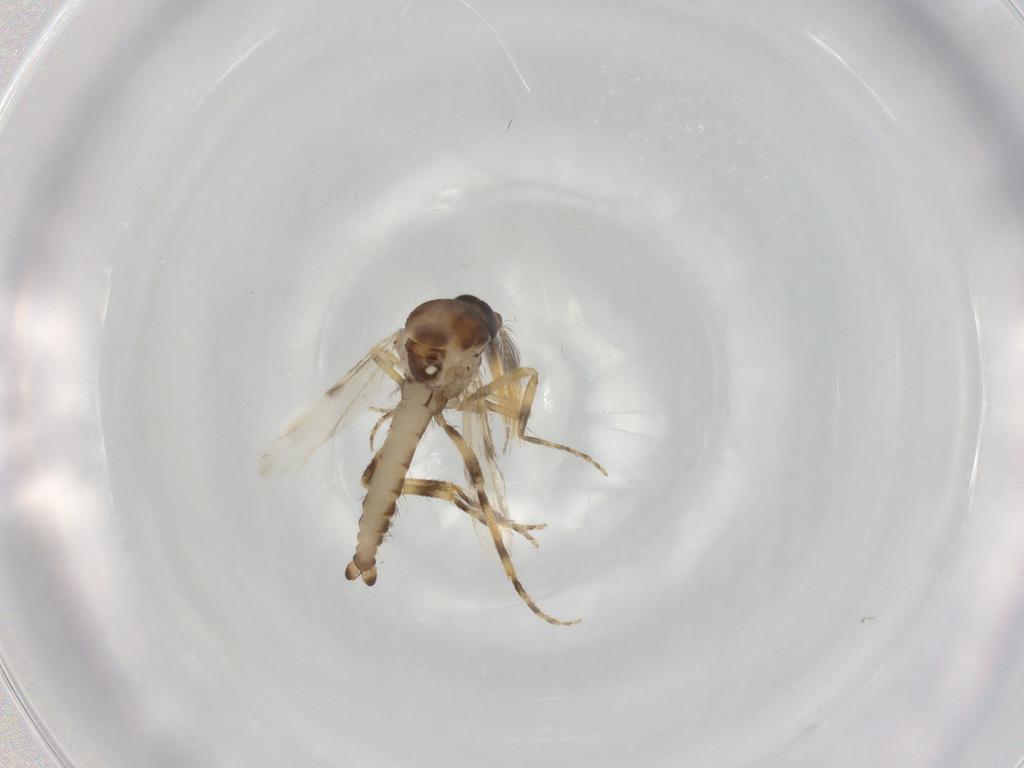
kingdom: Animalia
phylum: Arthropoda
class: Insecta
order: Diptera
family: Ceratopogonidae
